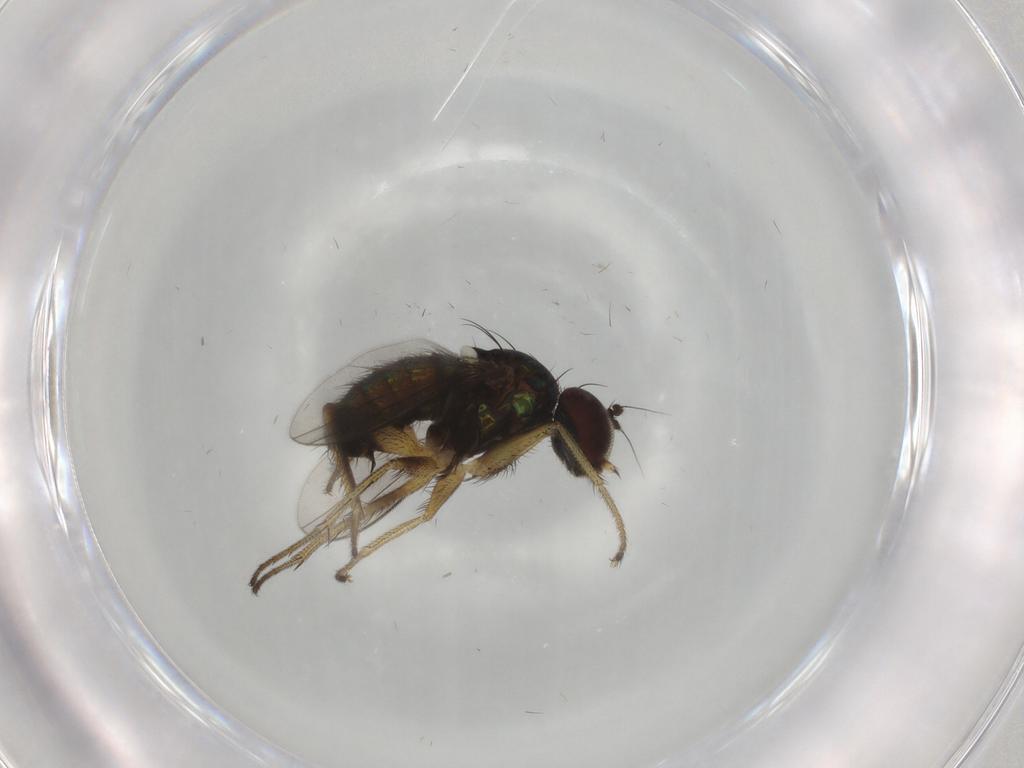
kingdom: Animalia
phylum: Arthropoda
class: Insecta
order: Diptera
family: Dolichopodidae
